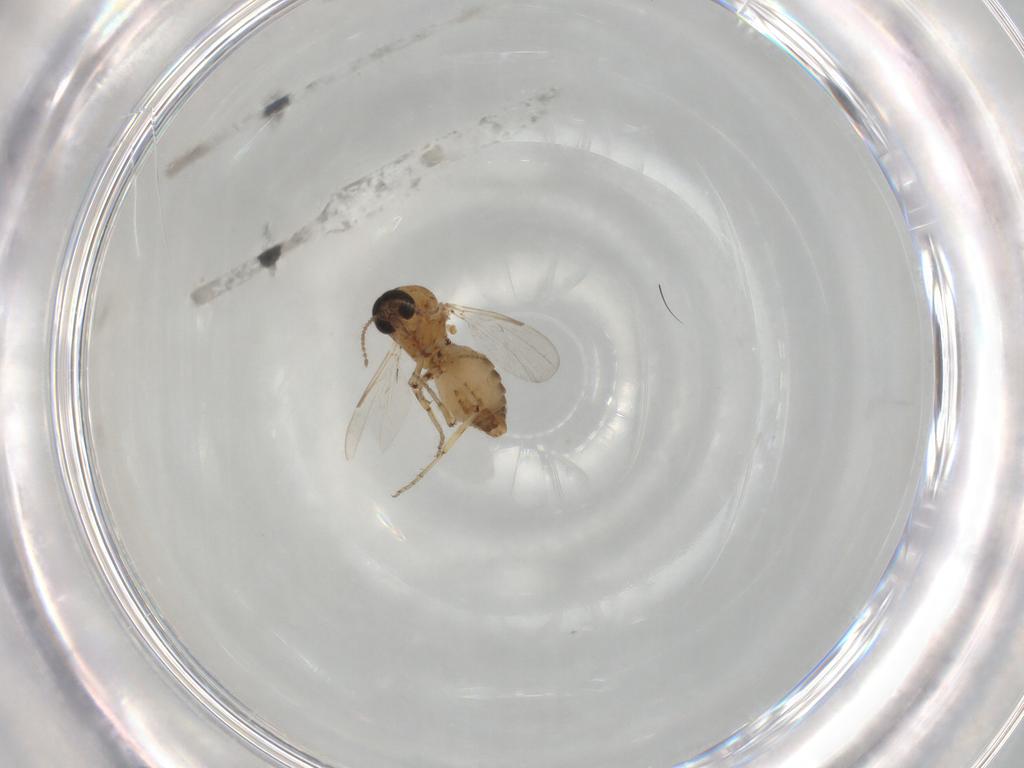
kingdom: Animalia
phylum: Arthropoda
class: Insecta
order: Diptera
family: Ceratopogonidae
